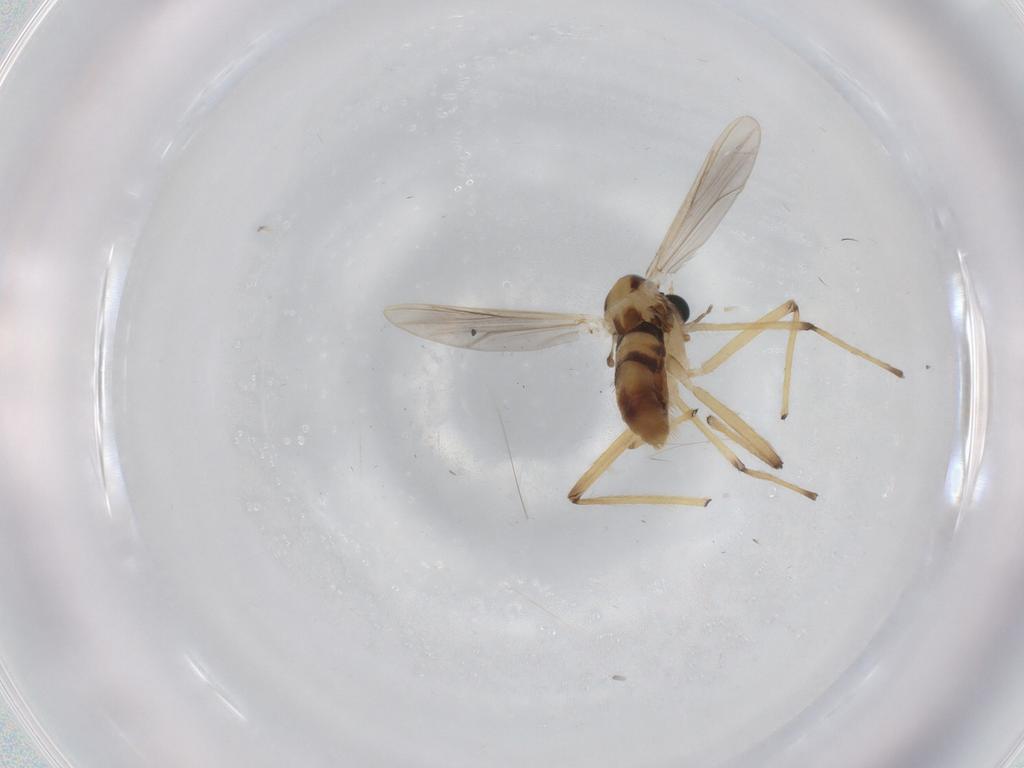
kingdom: Animalia
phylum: Arthropoda
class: Insecta
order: Diptera
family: Chironomidae
